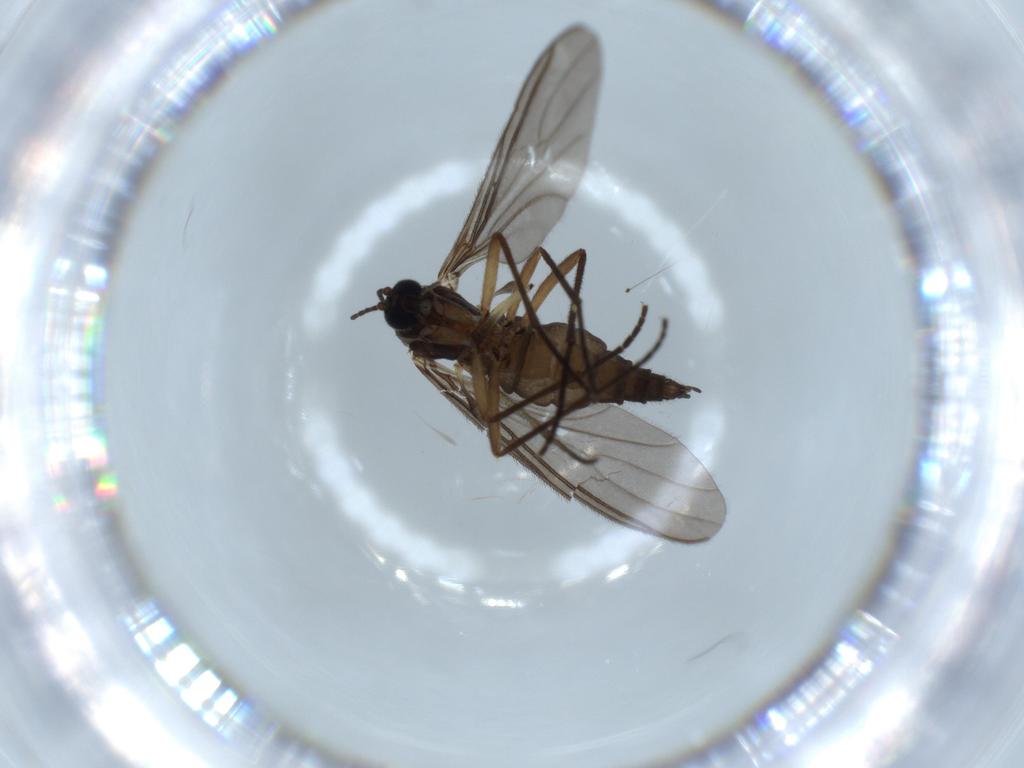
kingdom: Animalia
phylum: Arthropoda
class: Insecta
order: Diptera
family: Sciaridae
